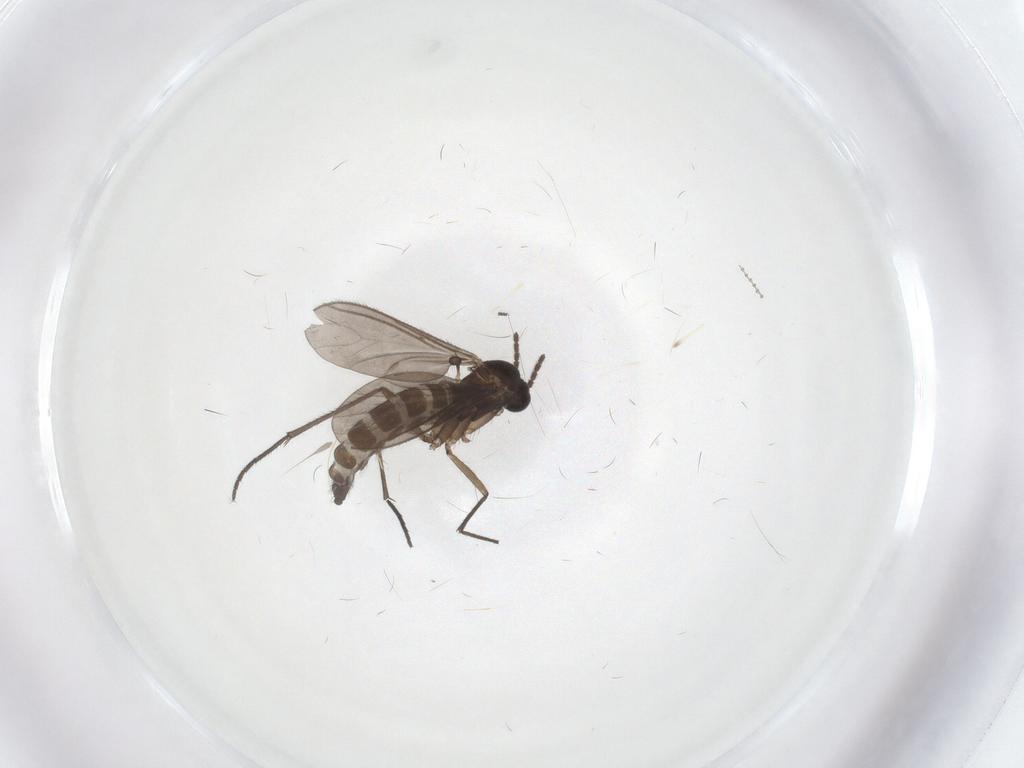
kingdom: Animalia
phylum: Arthropoda
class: Insecta
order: Diptera
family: Sciaridae
